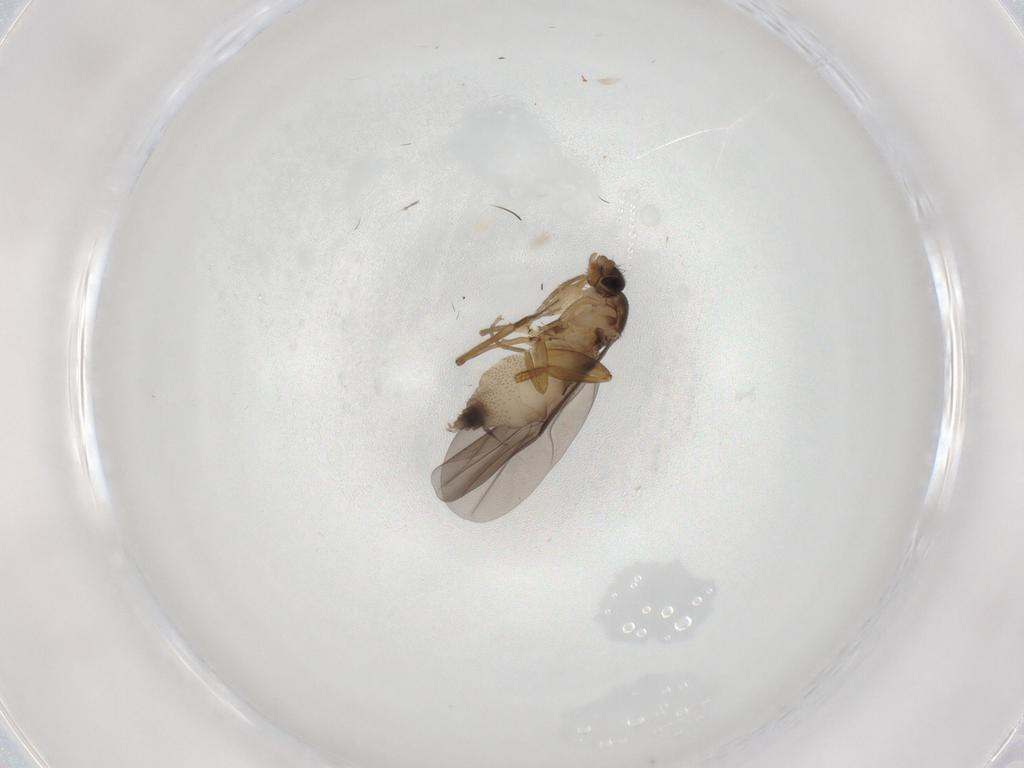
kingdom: Animalia
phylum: Arthropoda
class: Insecta
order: Diptera
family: Phoridae
